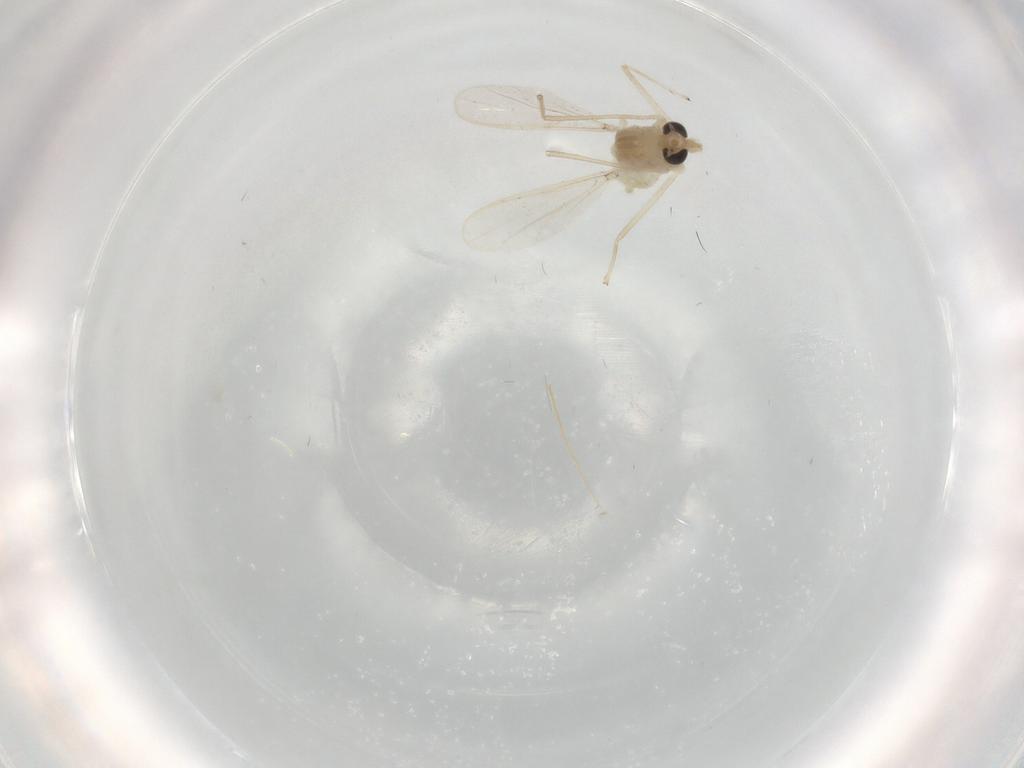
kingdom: Animalia
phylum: Arthropoda
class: Insecta
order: Diptera
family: Chironomidae
